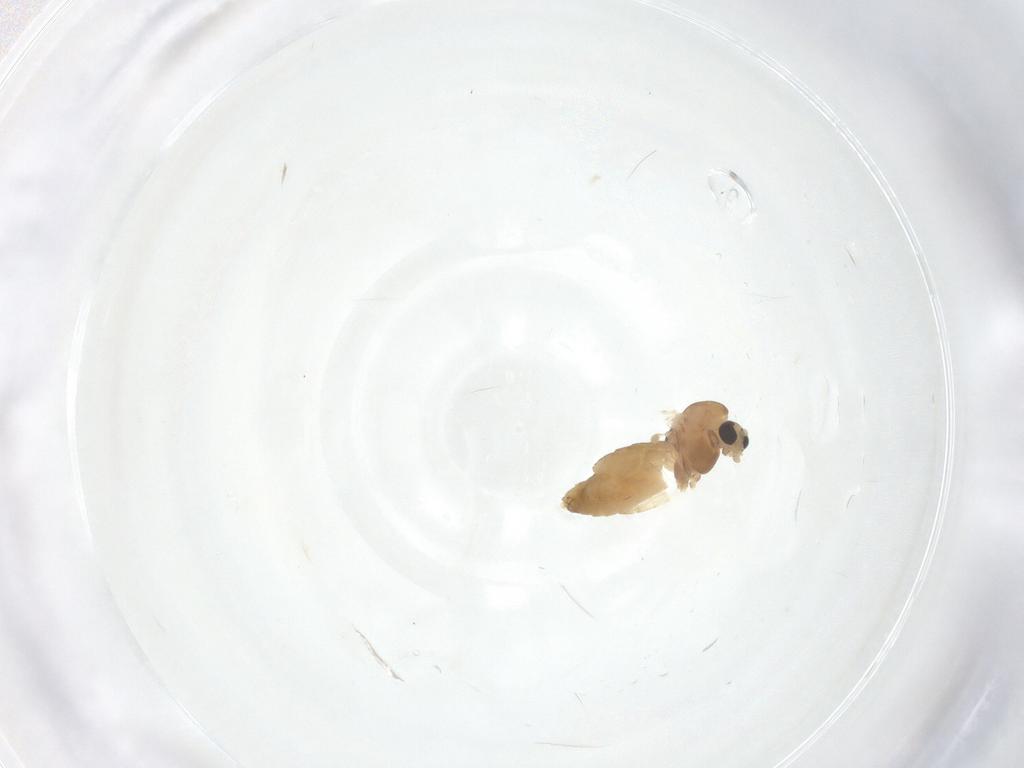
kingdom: Animalia
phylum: Arthropoda
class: Insecta
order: Diptera
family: Chironomidae
